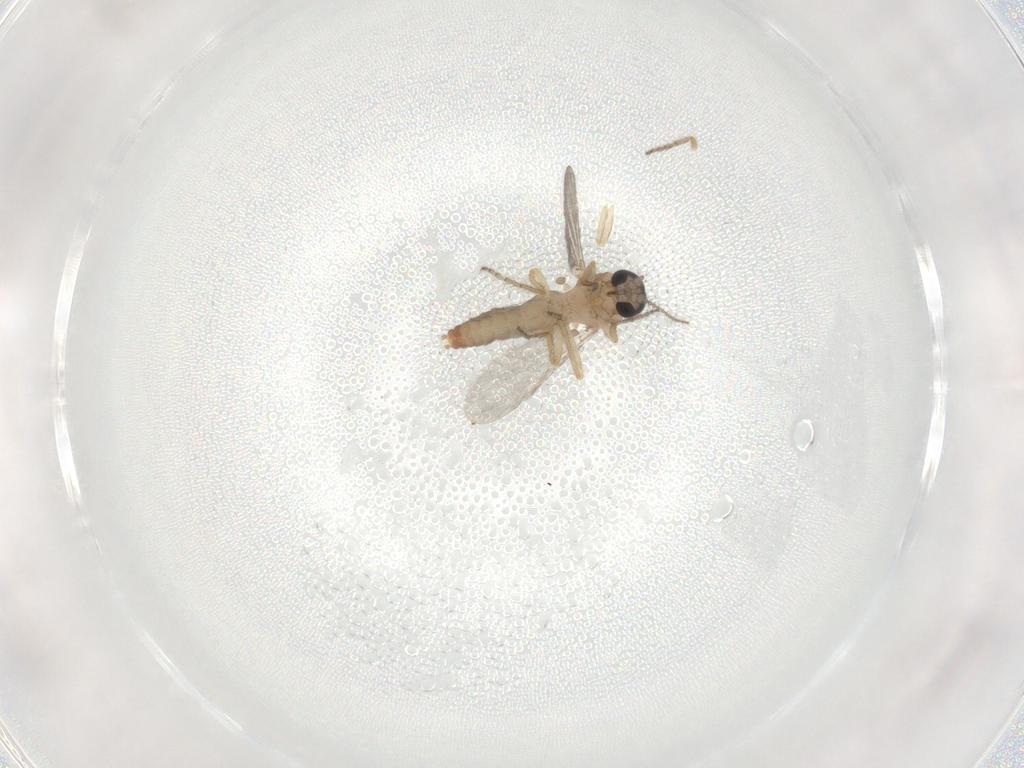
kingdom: Animalia
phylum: Arthropoda
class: Insecta
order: Diptera
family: Ceratopogonidae
